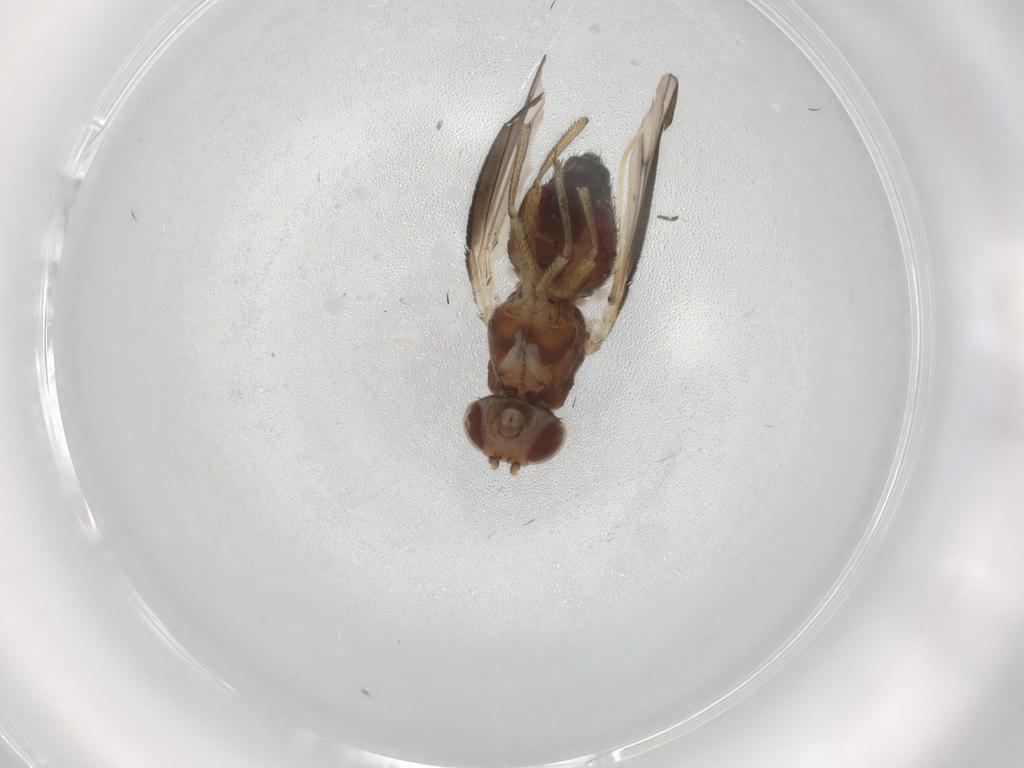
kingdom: Animalia
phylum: Arthropoda
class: Insecta
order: Diptera
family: Heleomyzidae
